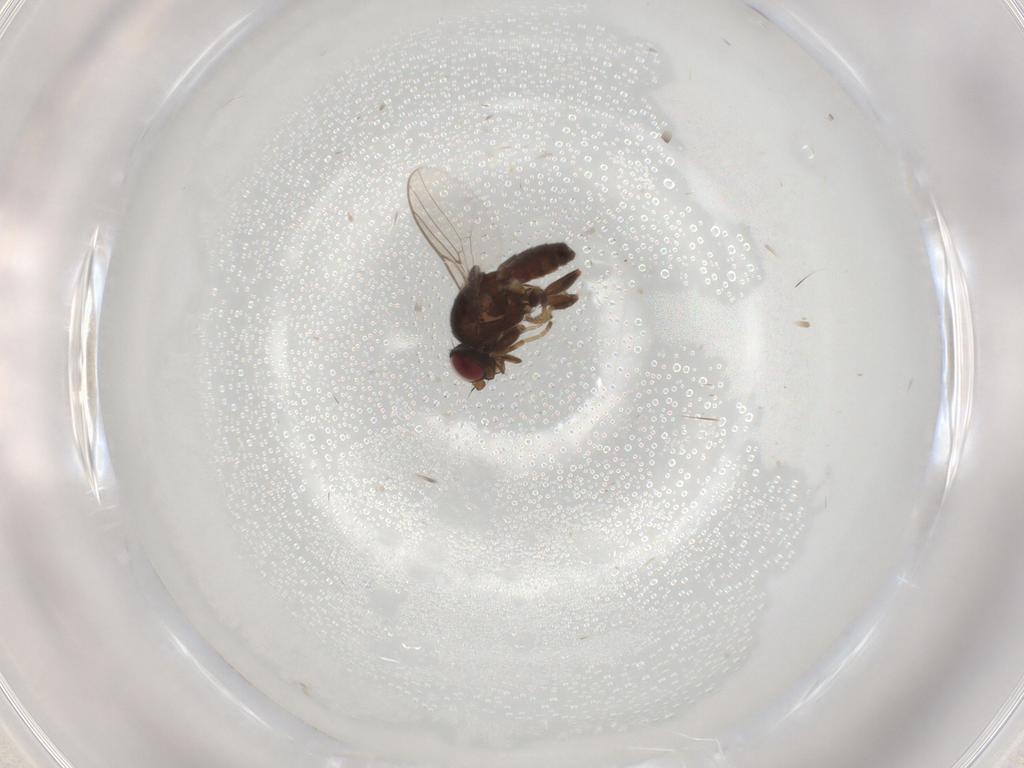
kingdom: Animalia
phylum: Arthropoda
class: Insecta
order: Diptera
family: Chloropidae
